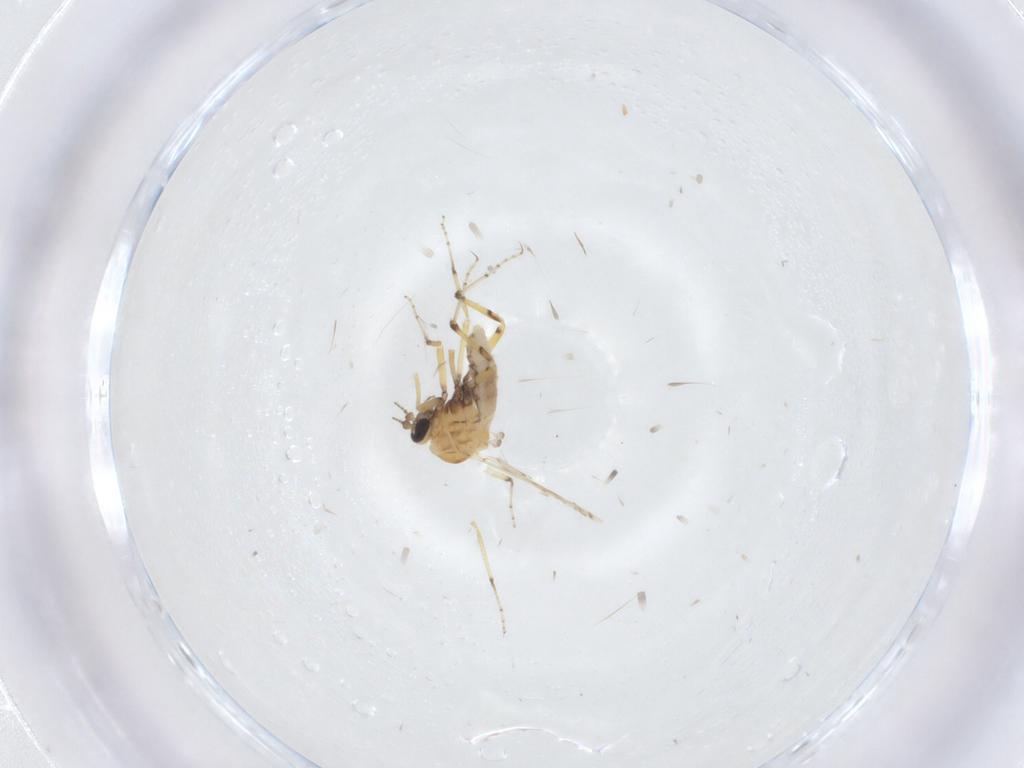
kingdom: Animalia
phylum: Arthropoda
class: Insecta
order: Diptera
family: Ceratopogonidae
